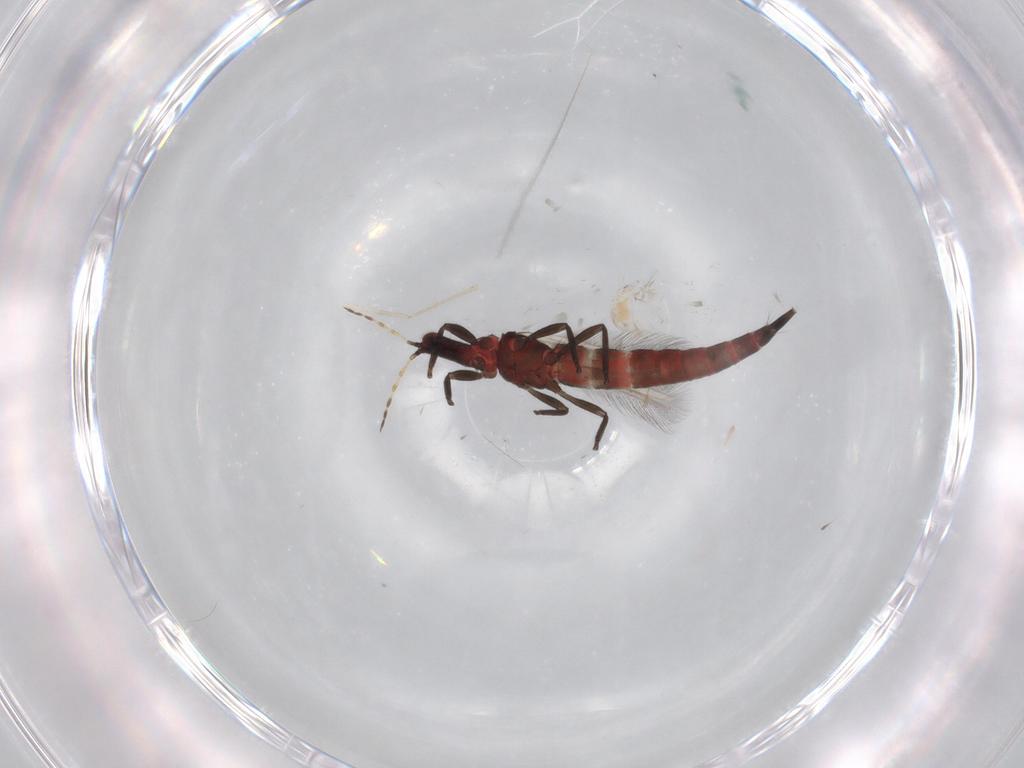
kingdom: Animalia
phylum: Arthropoda
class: Insecta
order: Thysanoptera
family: Phlaeothripidae
